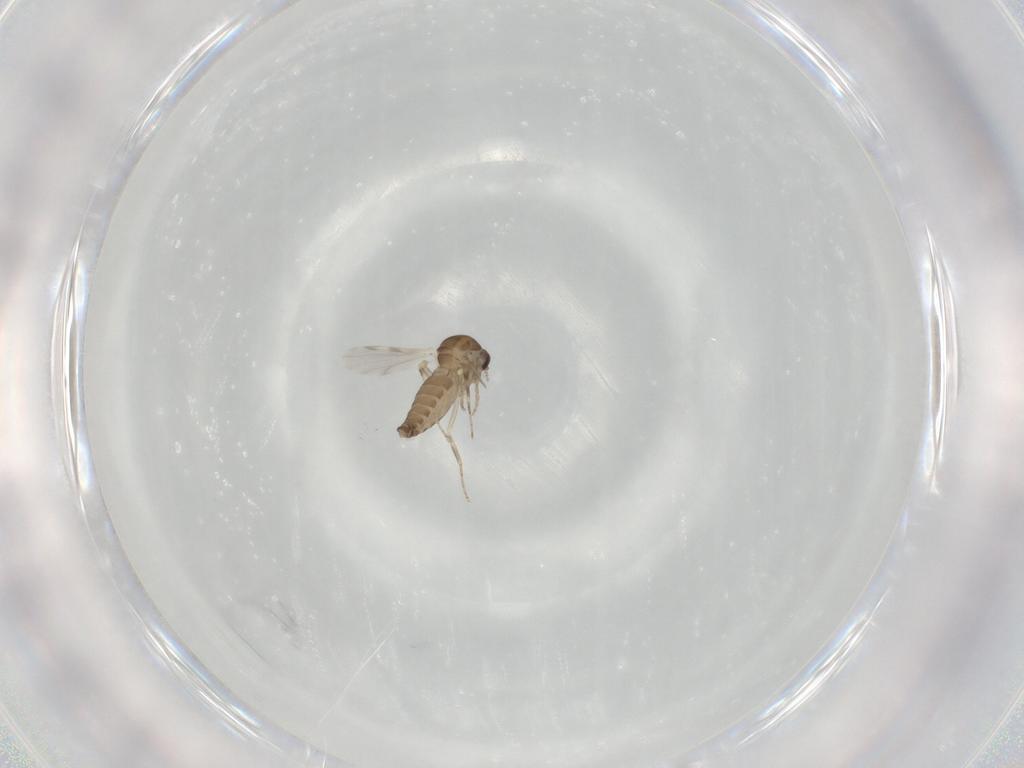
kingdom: Animalia
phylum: Arthropoda
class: Insecta
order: Diptera
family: Ceratopogonidae
